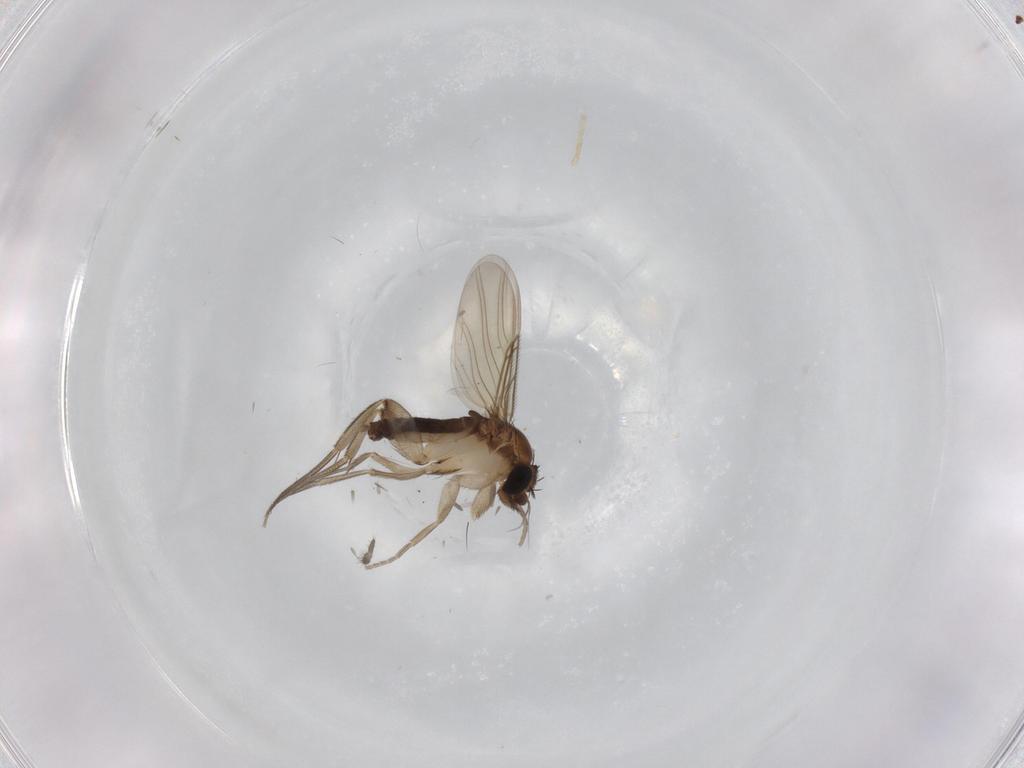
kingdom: Animalia
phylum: Arthropoda
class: Insecta
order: Diptera
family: Phoridae
